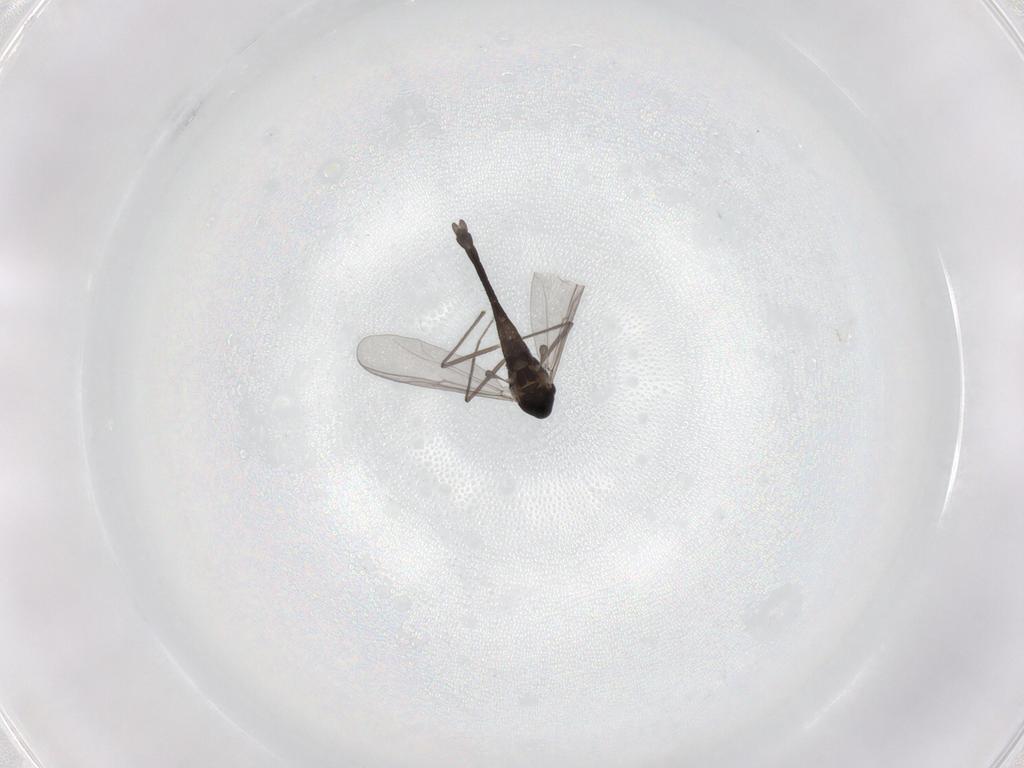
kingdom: Animalia
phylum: Arthropoda
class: Insecta
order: Diptera
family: Chironomidae
